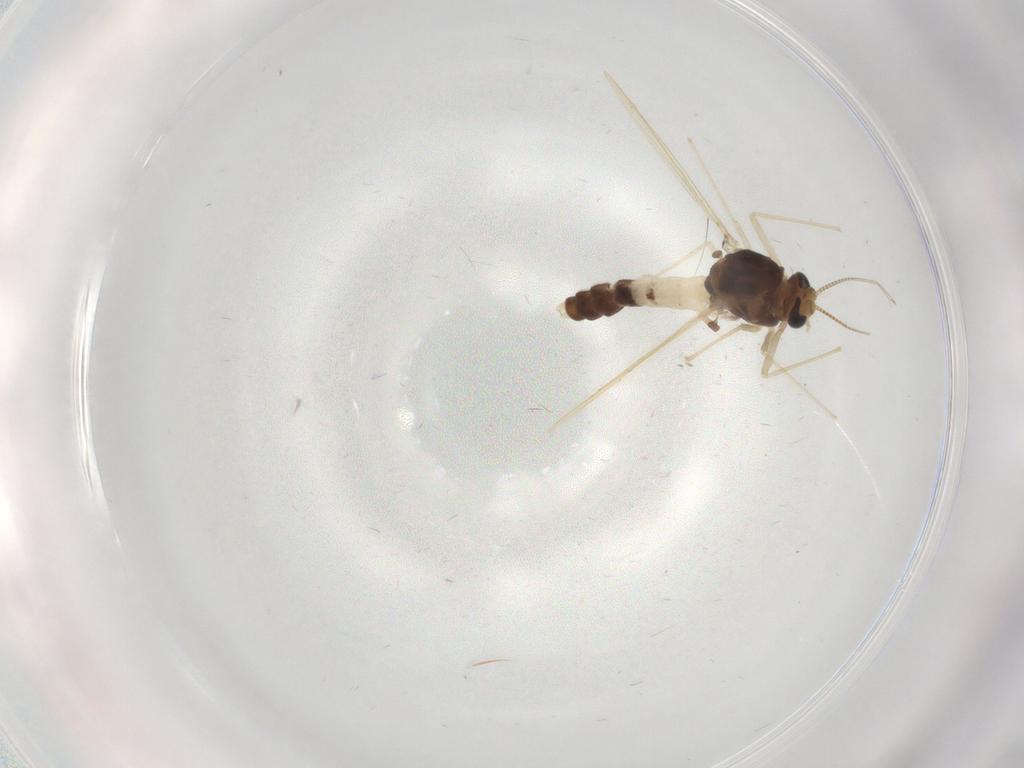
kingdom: Animalia
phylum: Arthropoda
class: Insecta
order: Diptera
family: Chironomidae
